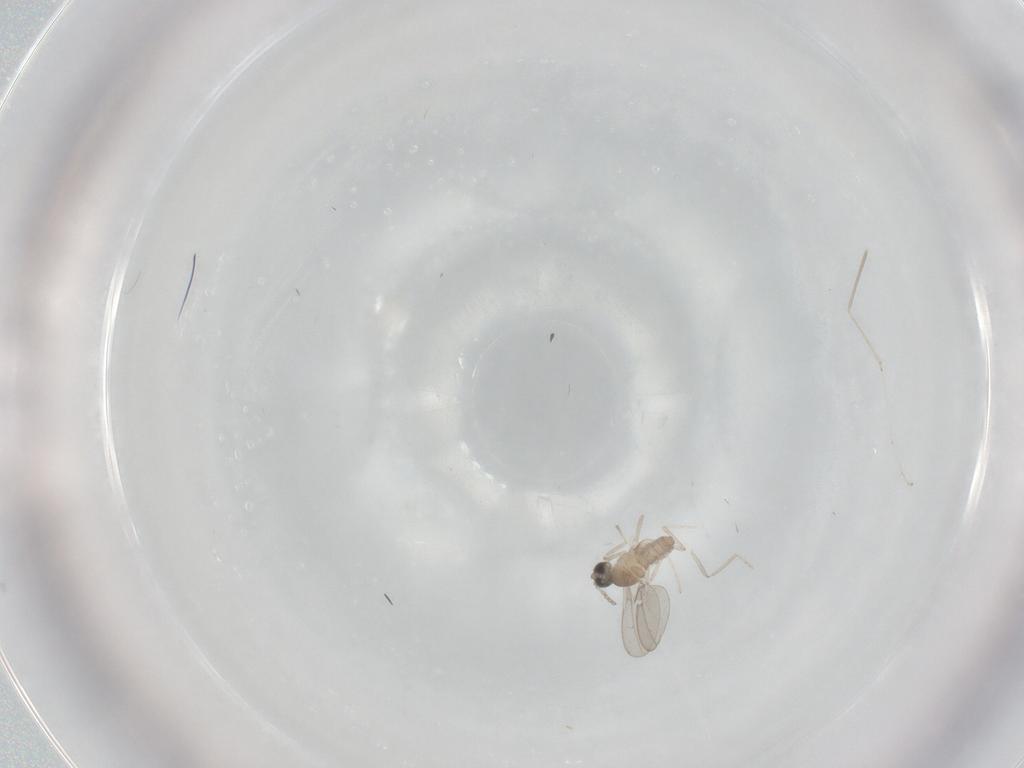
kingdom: Animalia
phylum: Arthropoda
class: Insecta
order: Diptera
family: Cecidomyiidae
